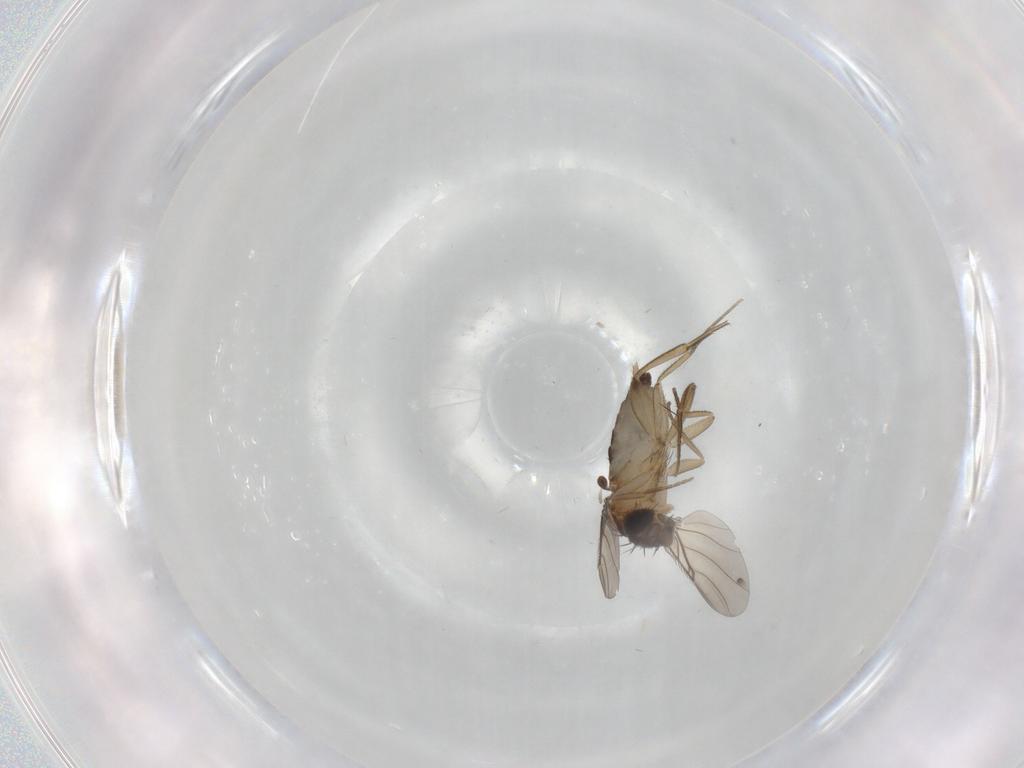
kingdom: Animalia
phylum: Arthropoda
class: Insecta
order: Diptera
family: Phoridae
